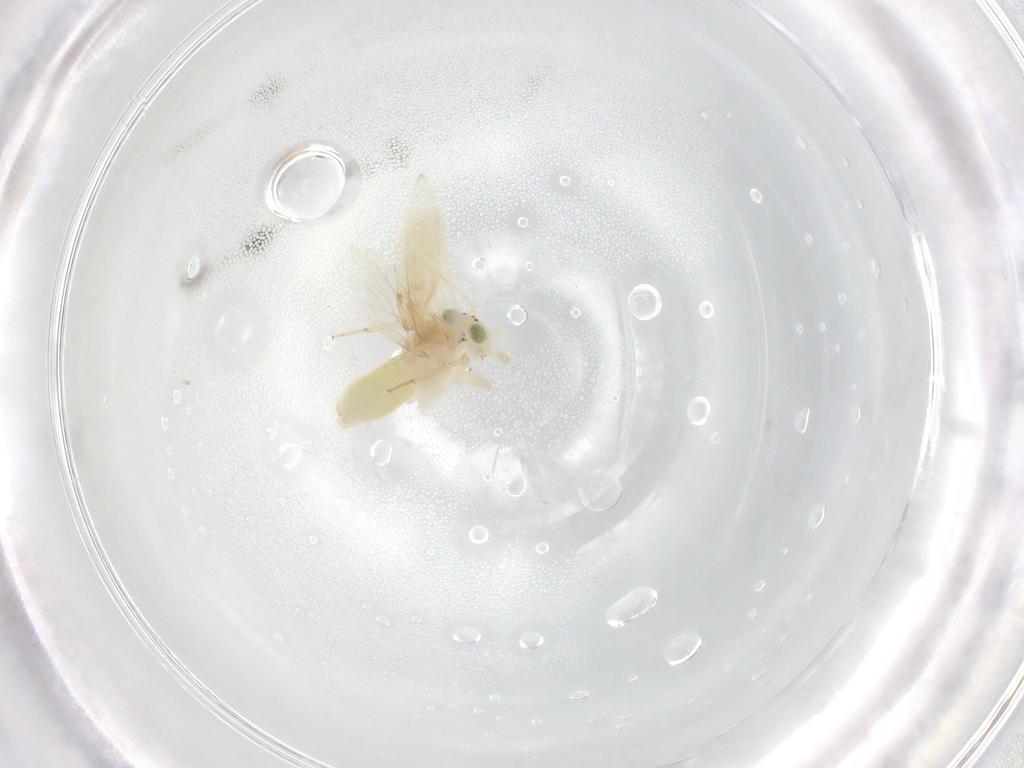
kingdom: Animalia
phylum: Arthropoda
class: Insecta
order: Psocodea
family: Lepidopsocidae
